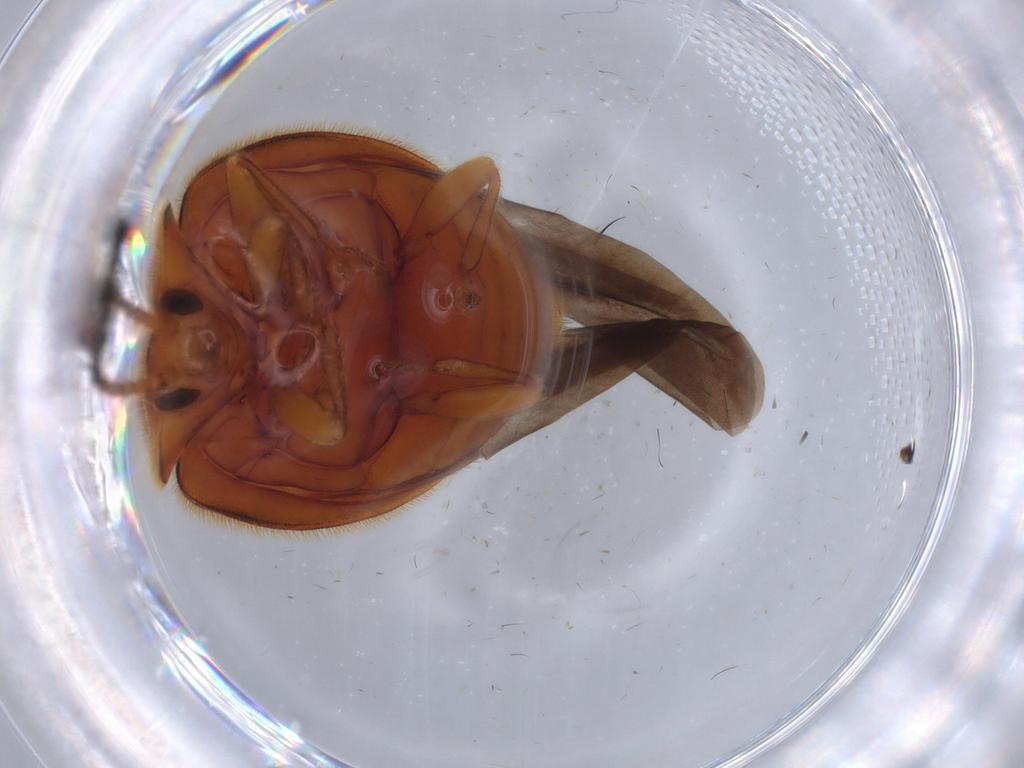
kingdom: Animalia
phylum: Arthropoda
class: Insecta
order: Coleoptera
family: Endomychidae
